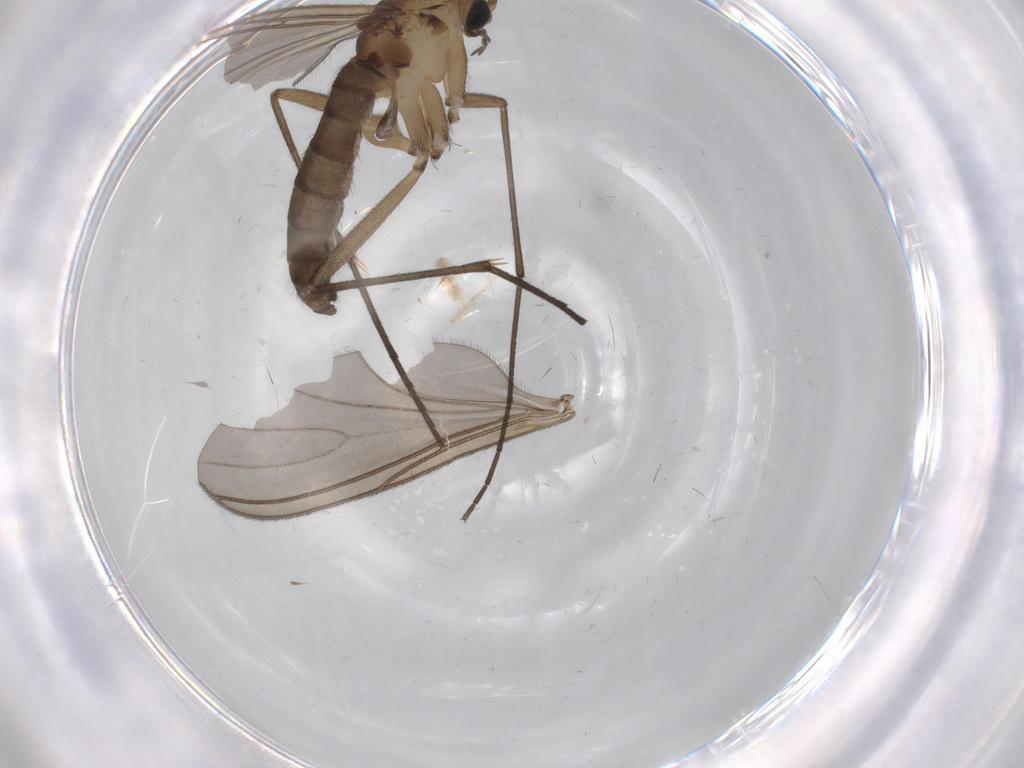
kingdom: Animalia
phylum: Arthropoda
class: Insecta
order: Diptera
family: Sciaridae
